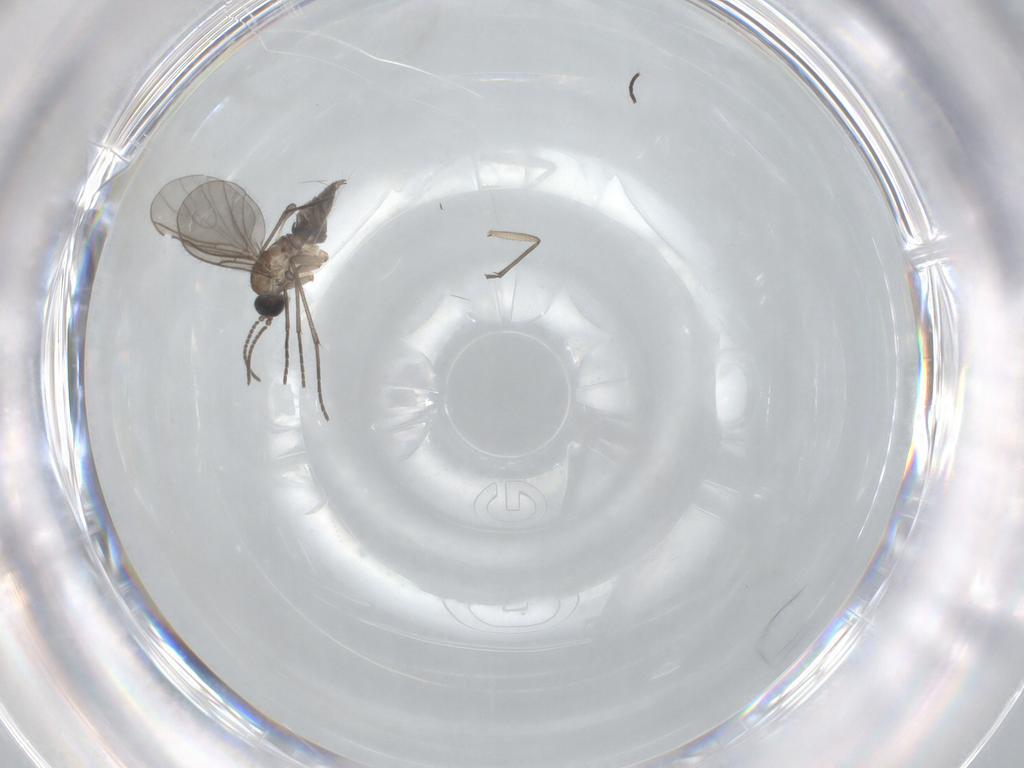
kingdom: Animalia
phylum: Arthropoda
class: Insecta
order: Diptera
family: Sciaridae
